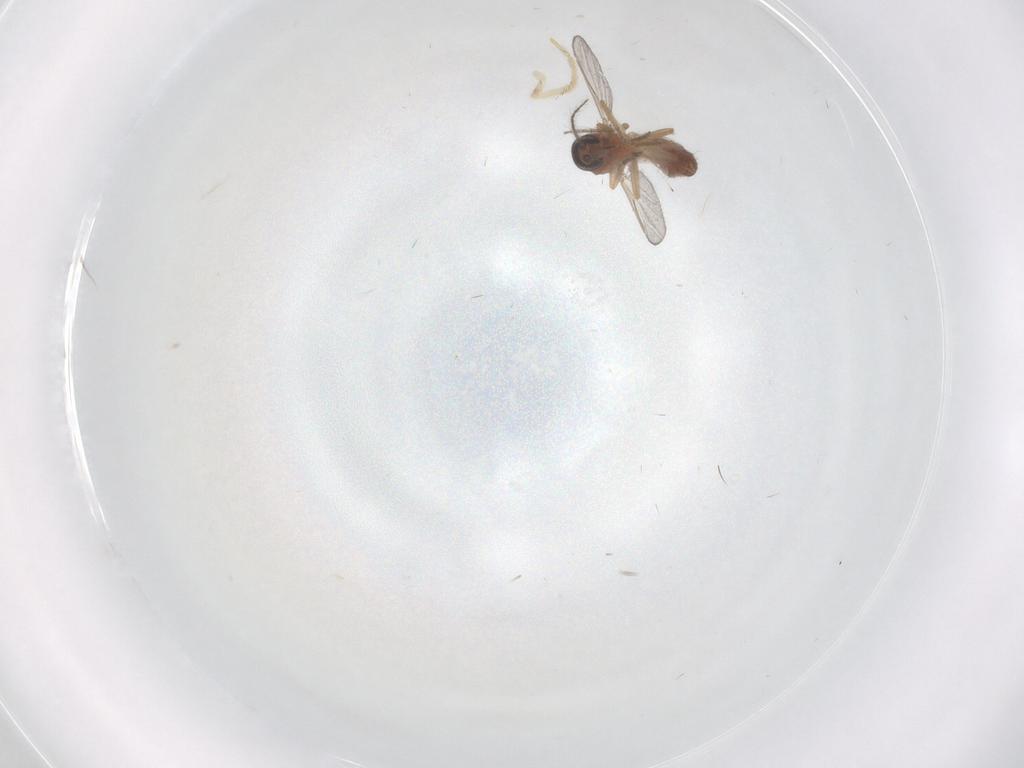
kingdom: Animalia
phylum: Arthropoda
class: Insecta
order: Diptera
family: Ceratopogonidae
